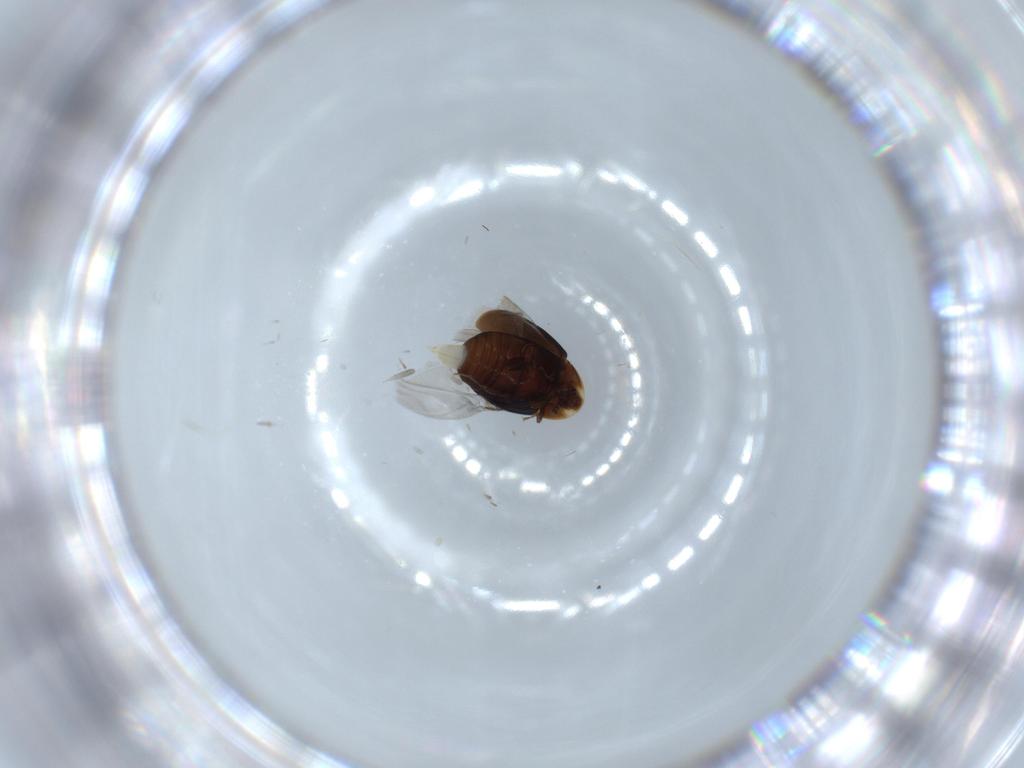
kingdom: Animalia
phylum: Arthropoda
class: Insecta
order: Coleoptera
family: Corylophidae
